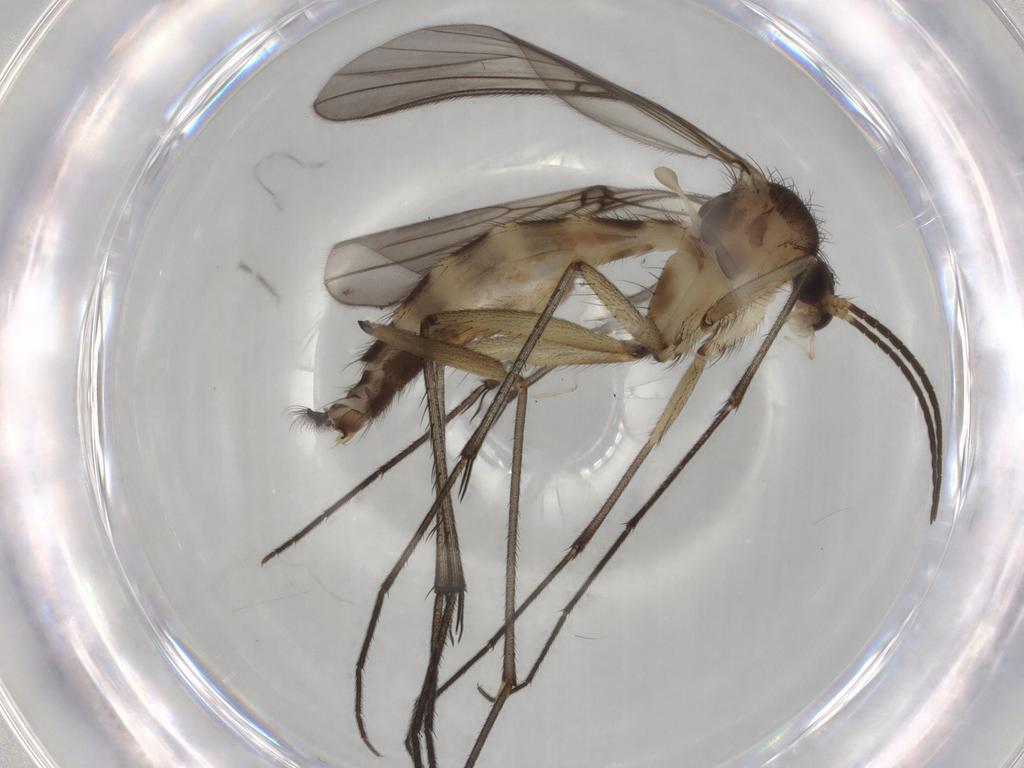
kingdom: Animalia
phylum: Arthropoda
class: Insecta
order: Diptera
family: Mycetophilidae
